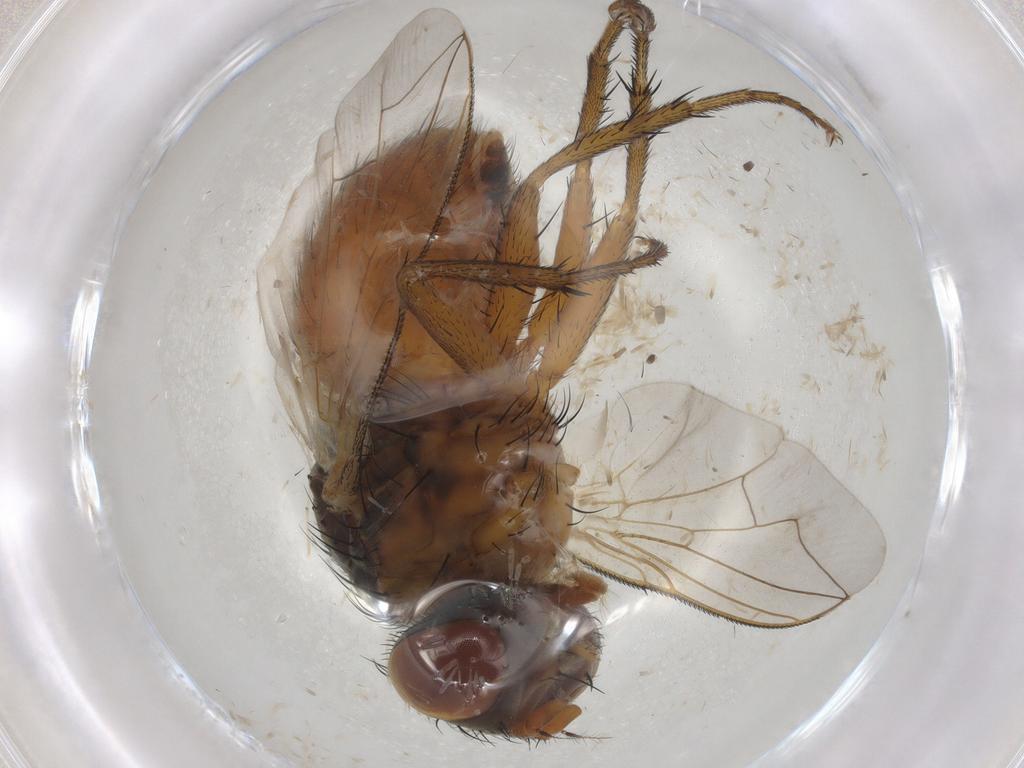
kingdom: Animalia
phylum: Arthropoda
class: Insecta
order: Diptera
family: Sarcophagidae
